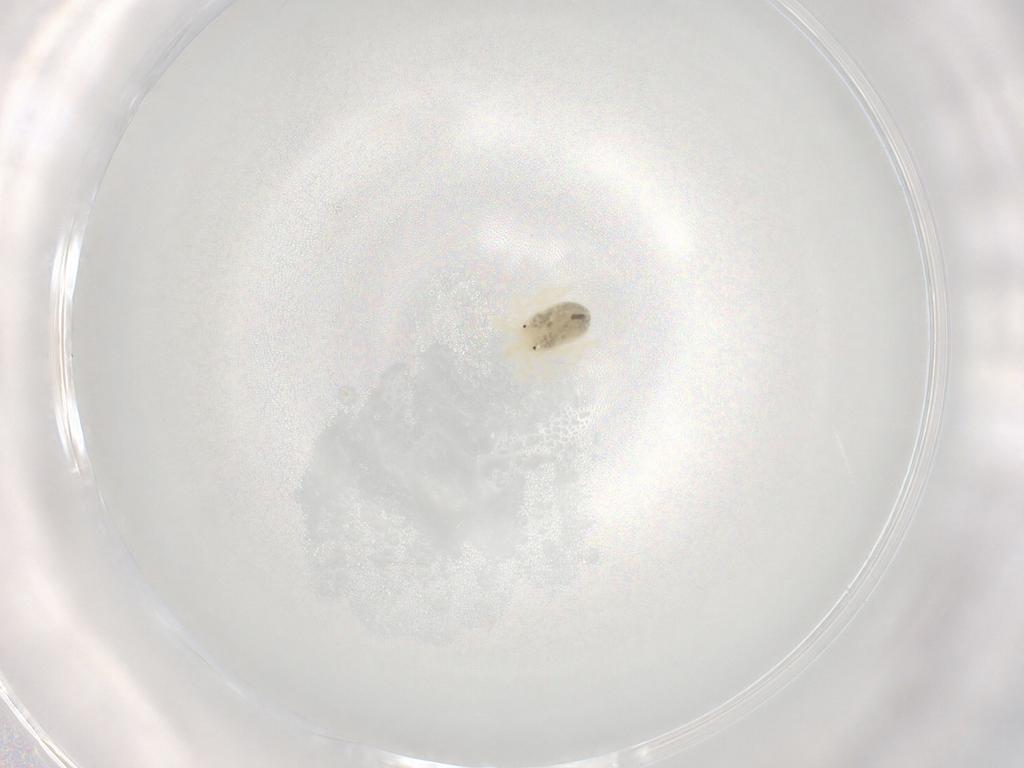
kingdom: Animalia
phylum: Arthropoda
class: Arachnida
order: Trombidiformes
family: Anystidae
